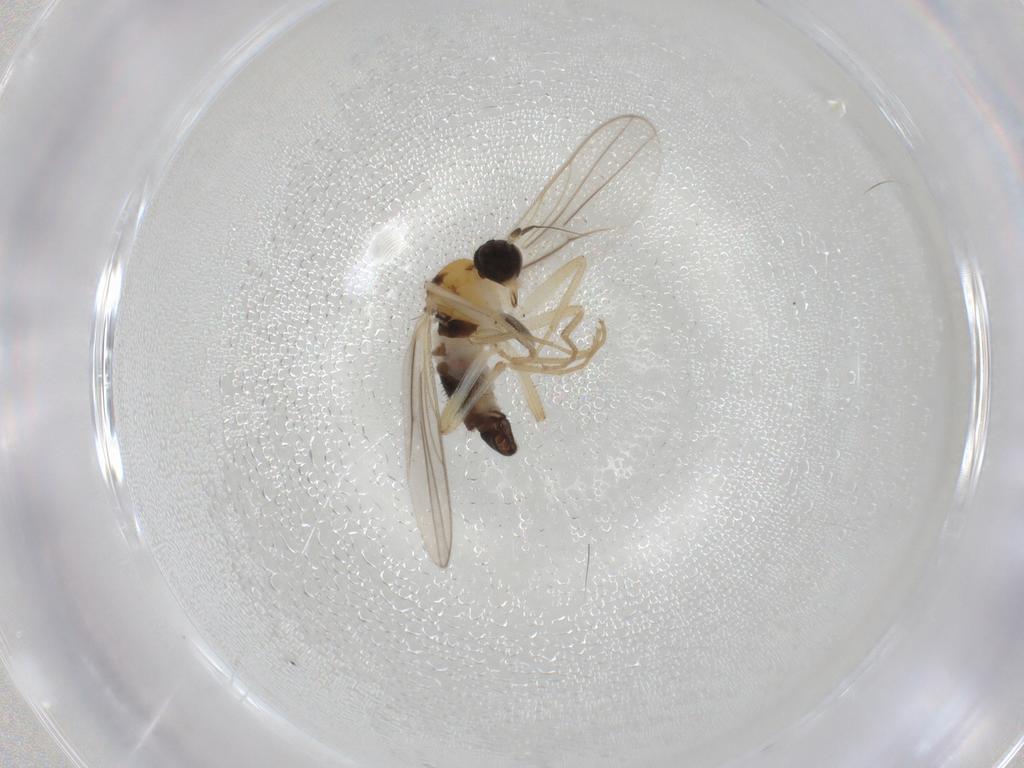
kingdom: Animalia
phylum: Arthropoda
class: Insecta
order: Diptera
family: Hybotidae
